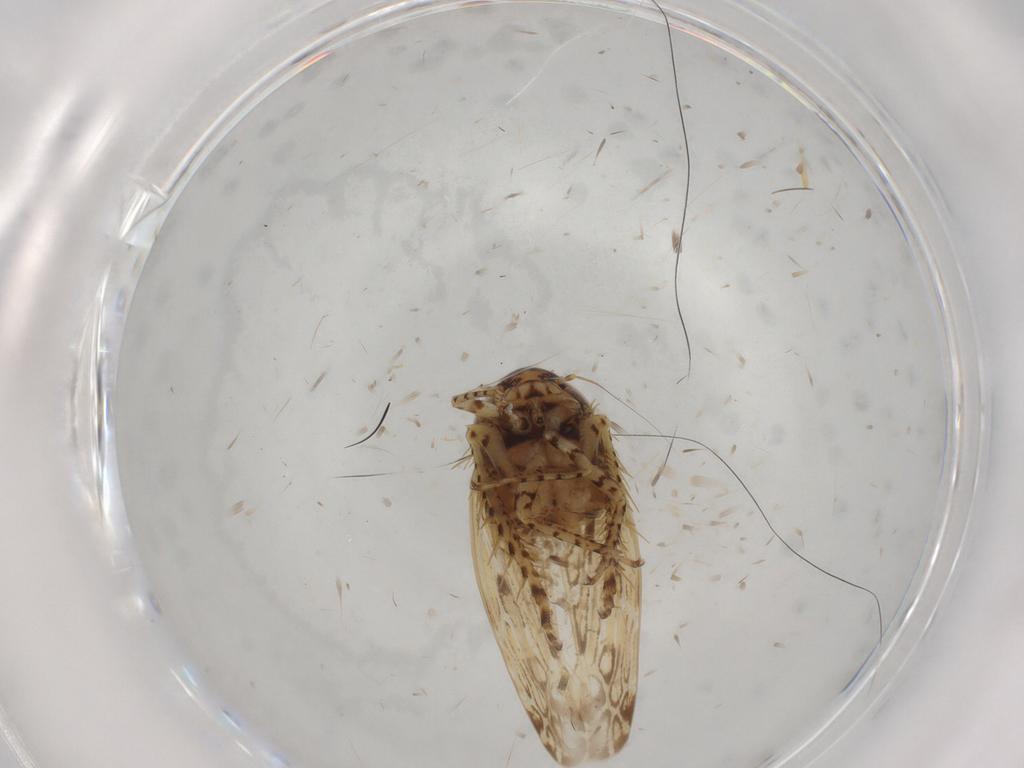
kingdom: Animalia
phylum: Arthropoda
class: Insecta
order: Hemiptera
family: Cicadellidae
